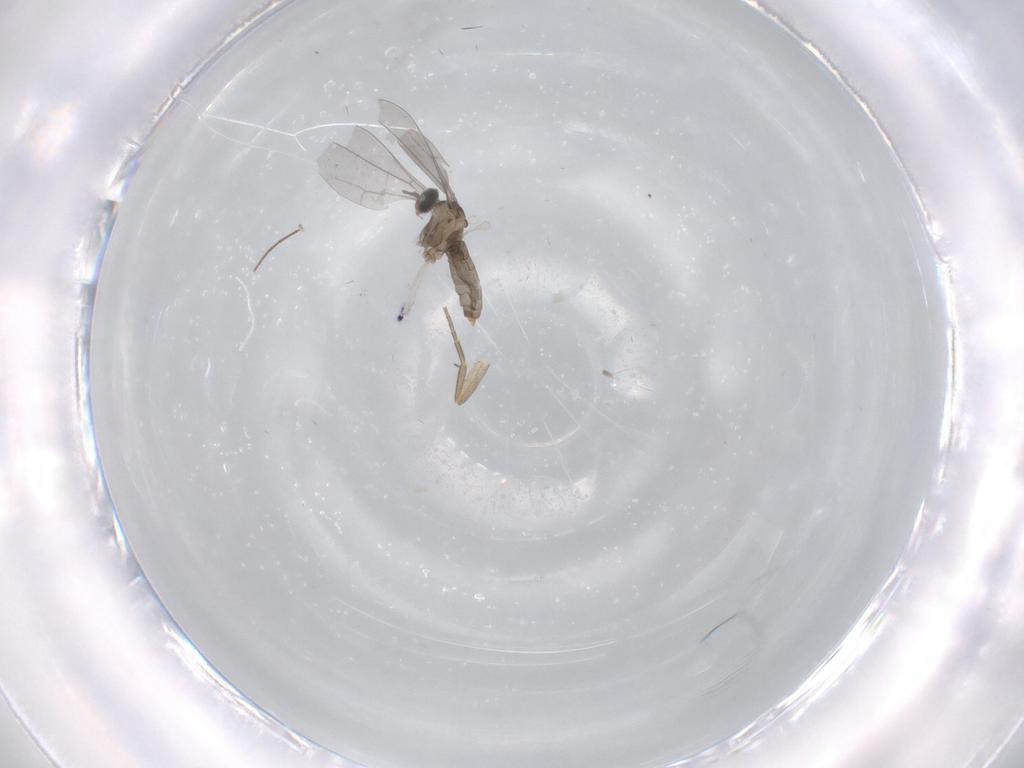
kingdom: Animalia
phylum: Arthropoda
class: Insecta
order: Diptera
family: Cecidomyiidae
